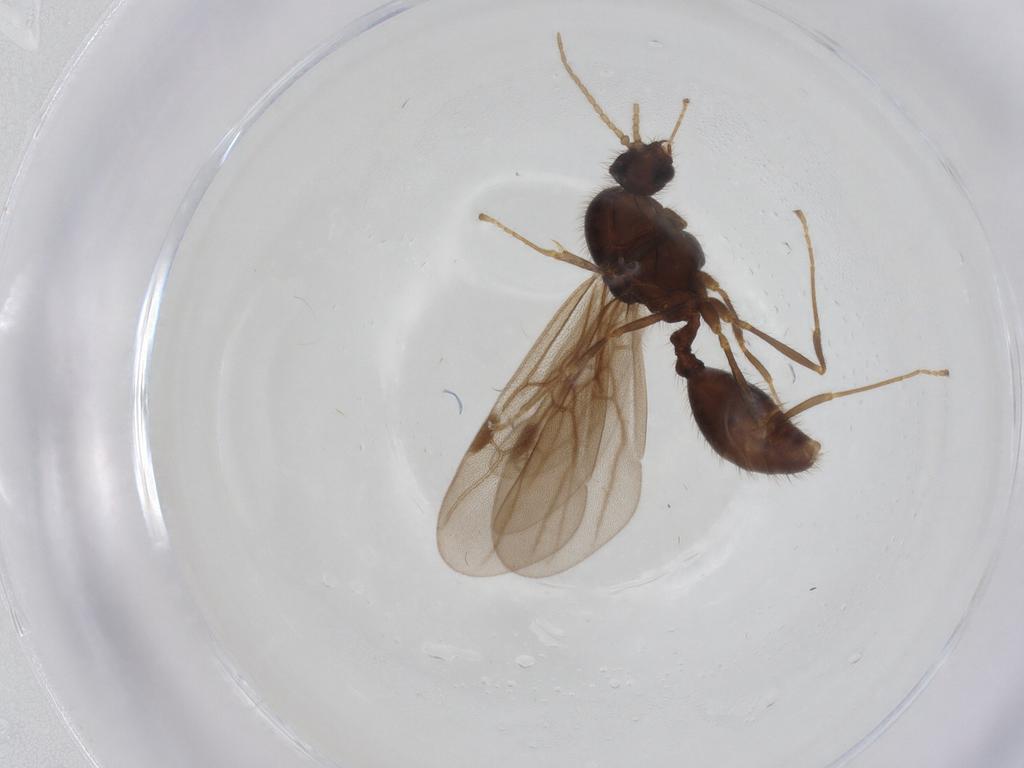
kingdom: Animalia
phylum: Arthropoda
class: Insecta
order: Hymenoptera
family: Formicidae
